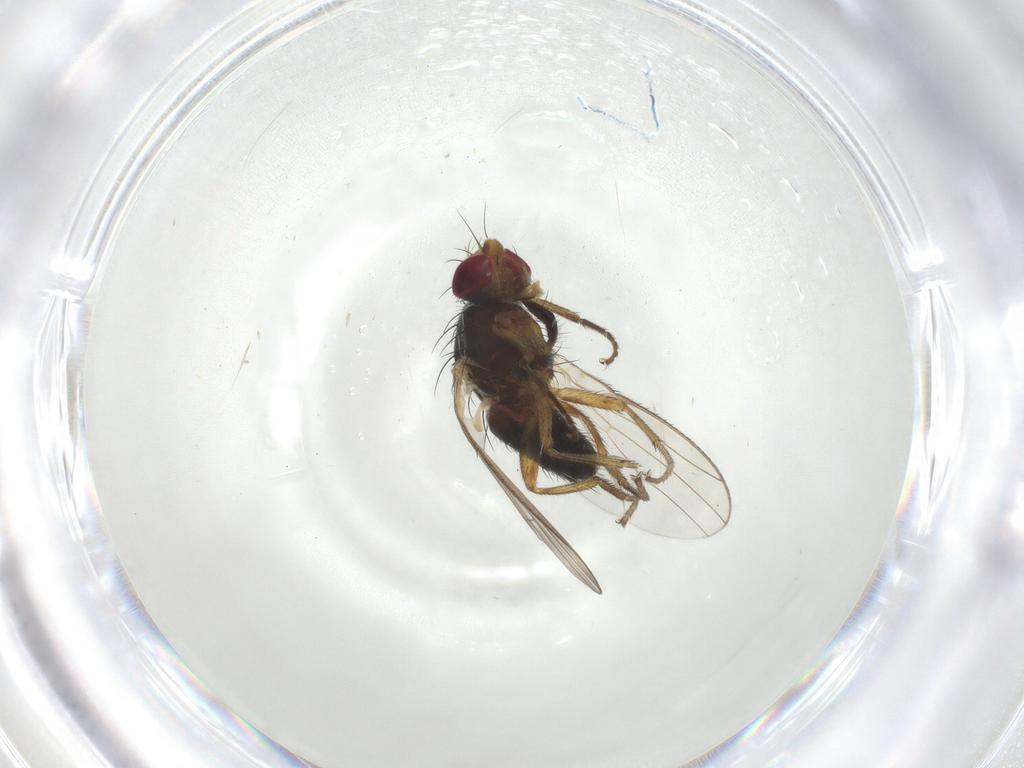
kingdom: Animalia
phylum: Arthropoda
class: Insecta
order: Diptera
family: Heleomyzidae
